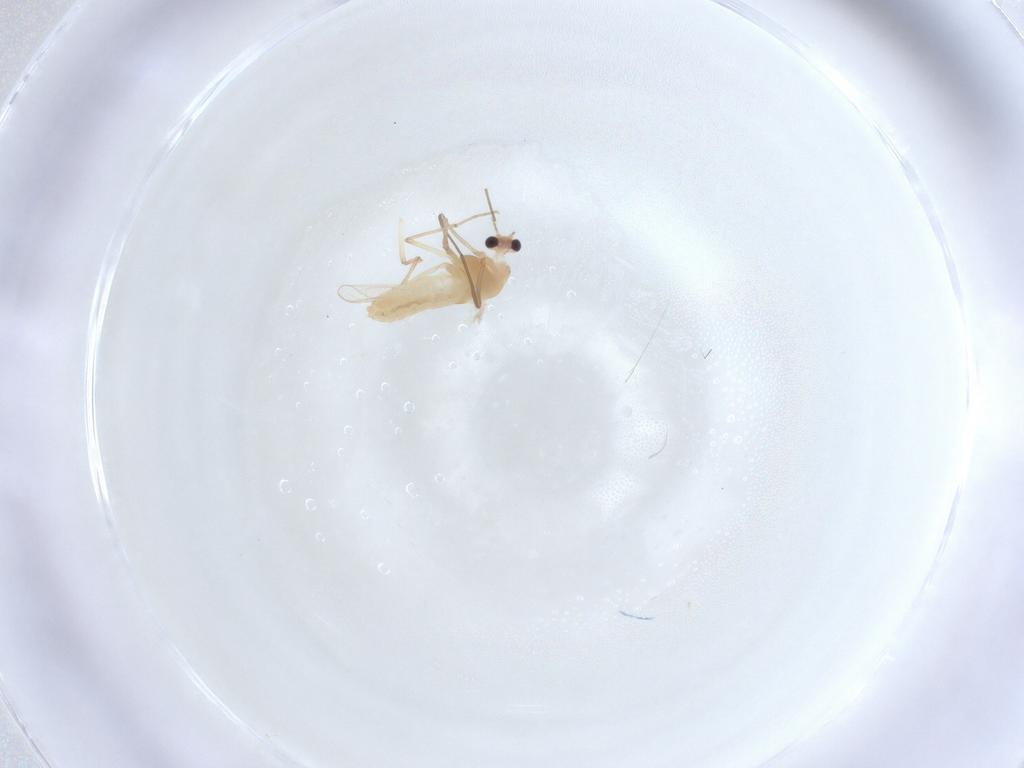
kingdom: Animalia
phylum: Arthropoda
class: Insecta
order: Diptera
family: Chironomidae
